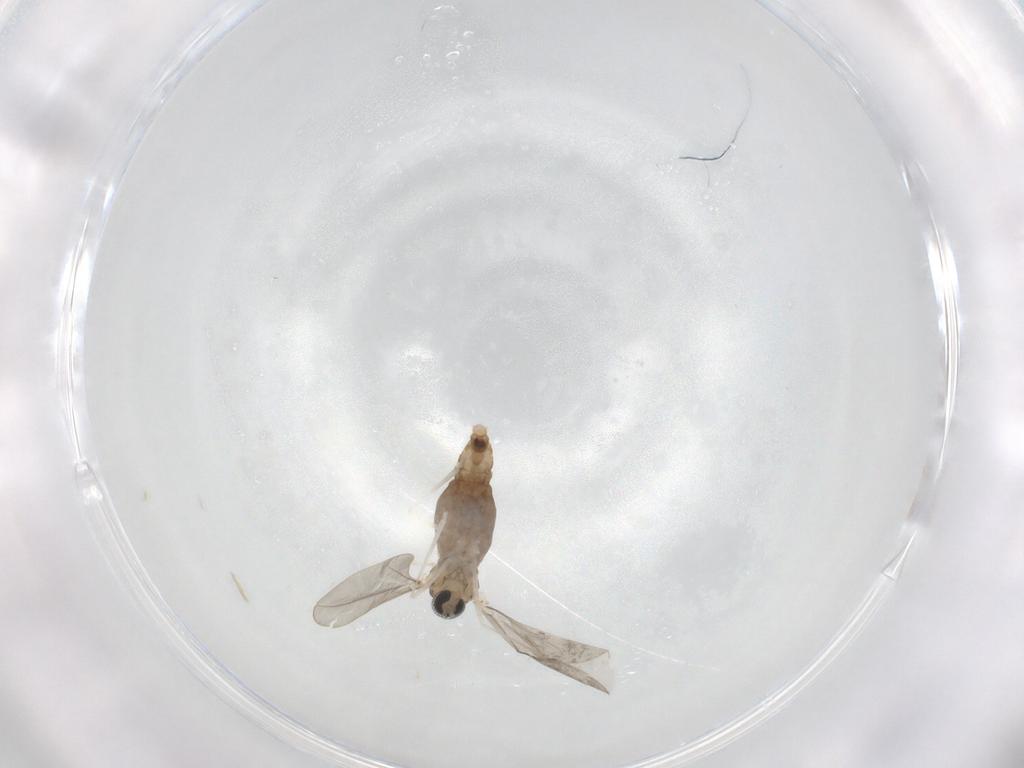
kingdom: Animalia
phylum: Arthropoda
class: Insecta
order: Diptera
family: Cecidomyiidae
